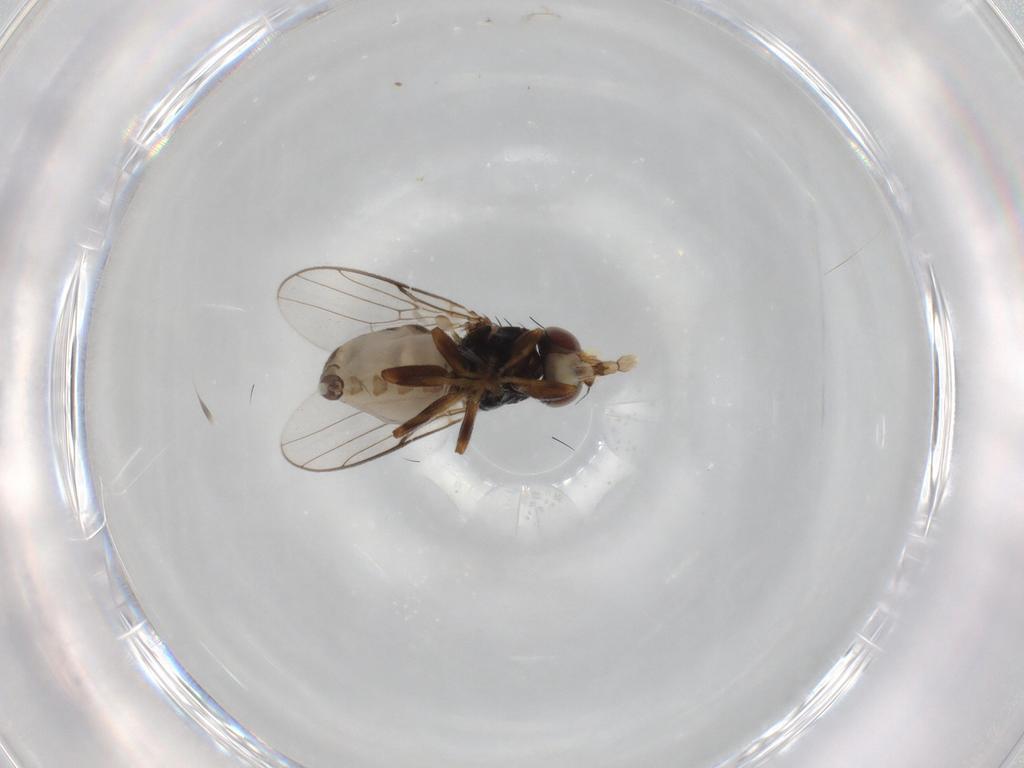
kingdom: Animalia
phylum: Arthropoda
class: Insecta
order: Diptera
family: Chloropidae
